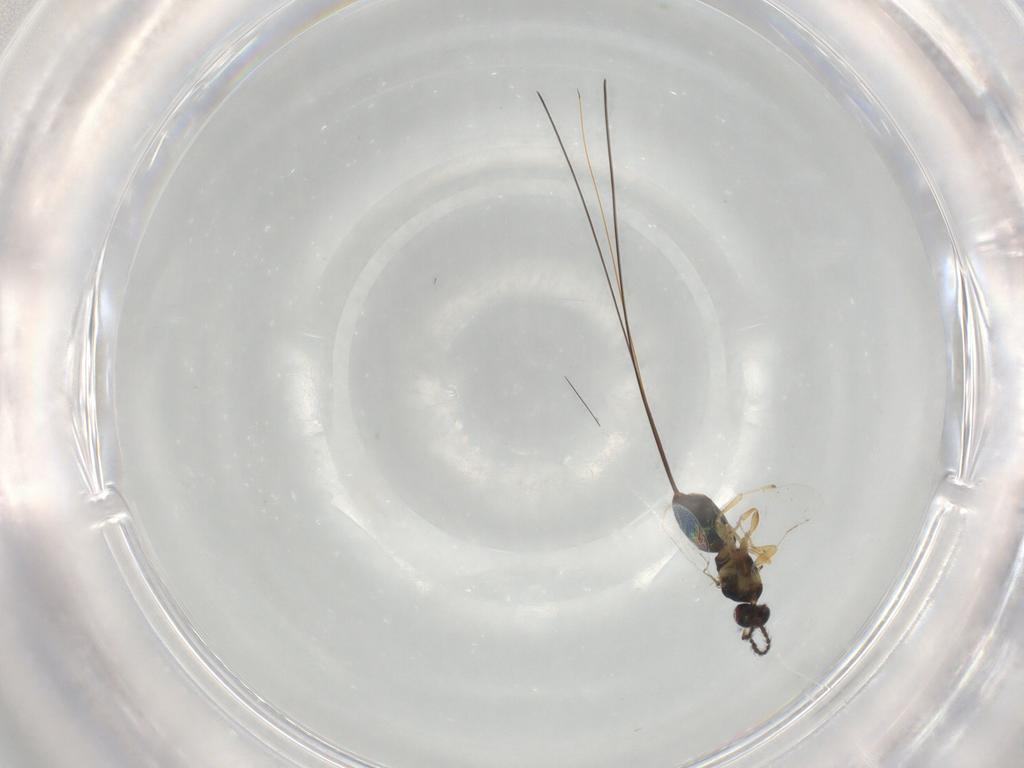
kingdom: Animalia
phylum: Arthropoda
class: Insecta
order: Hymenoptera
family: Agaonidae
